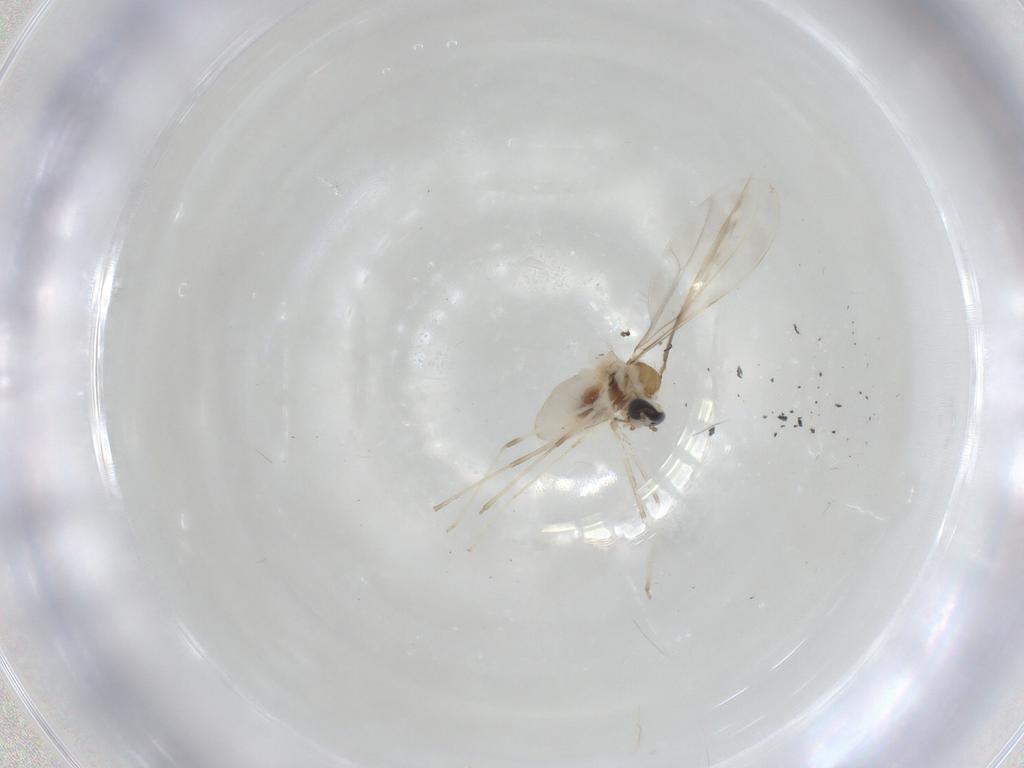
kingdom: Animalia
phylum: Arthropoda
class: Insecta
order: Diptera
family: Cecidomyiidae
